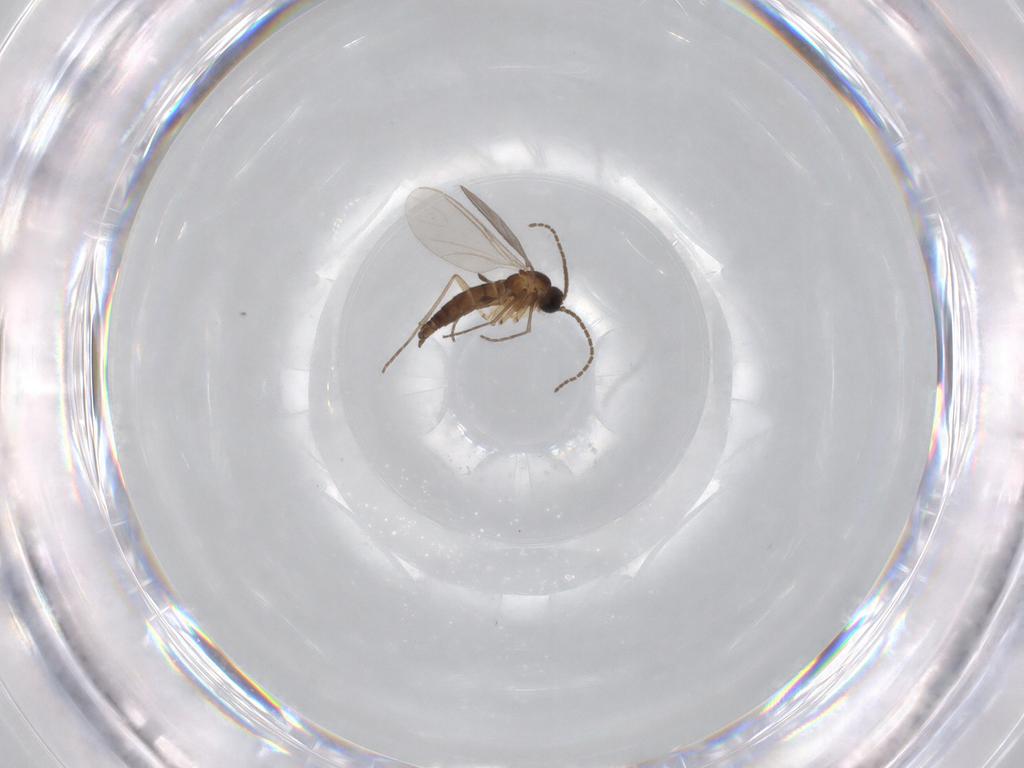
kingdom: Animalia
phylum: Arthropoda
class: Insecta
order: Diptera
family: Sciaridae
